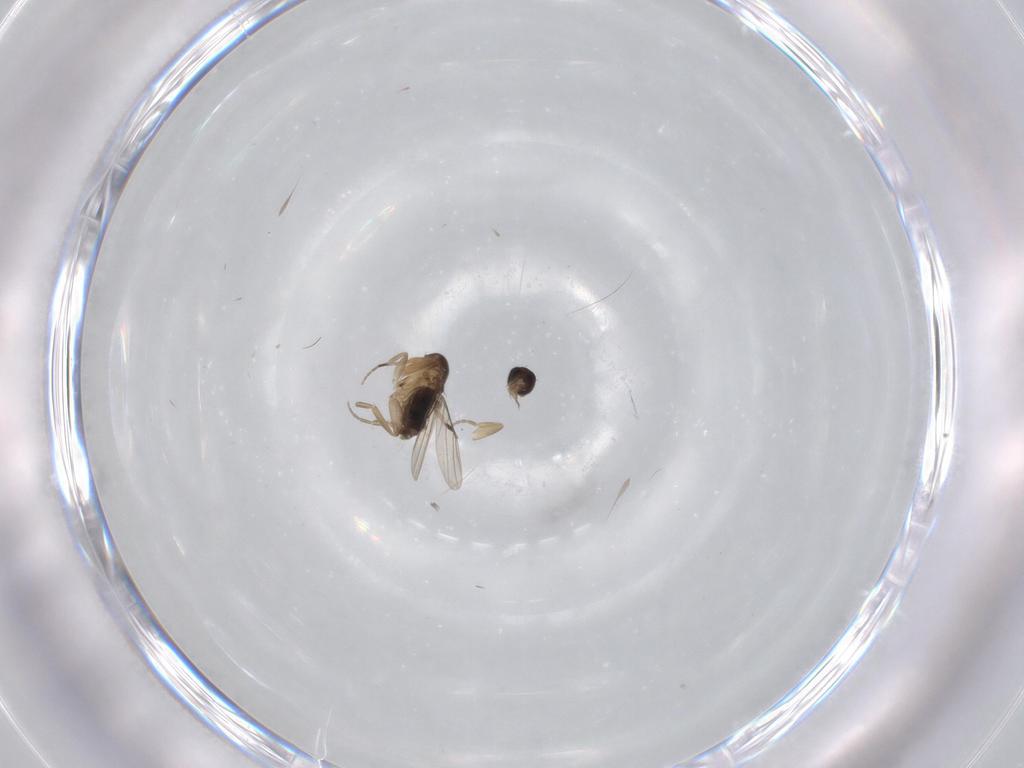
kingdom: Animalia
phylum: Arthropoda
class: Insecta
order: Diptera
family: Phoridae
